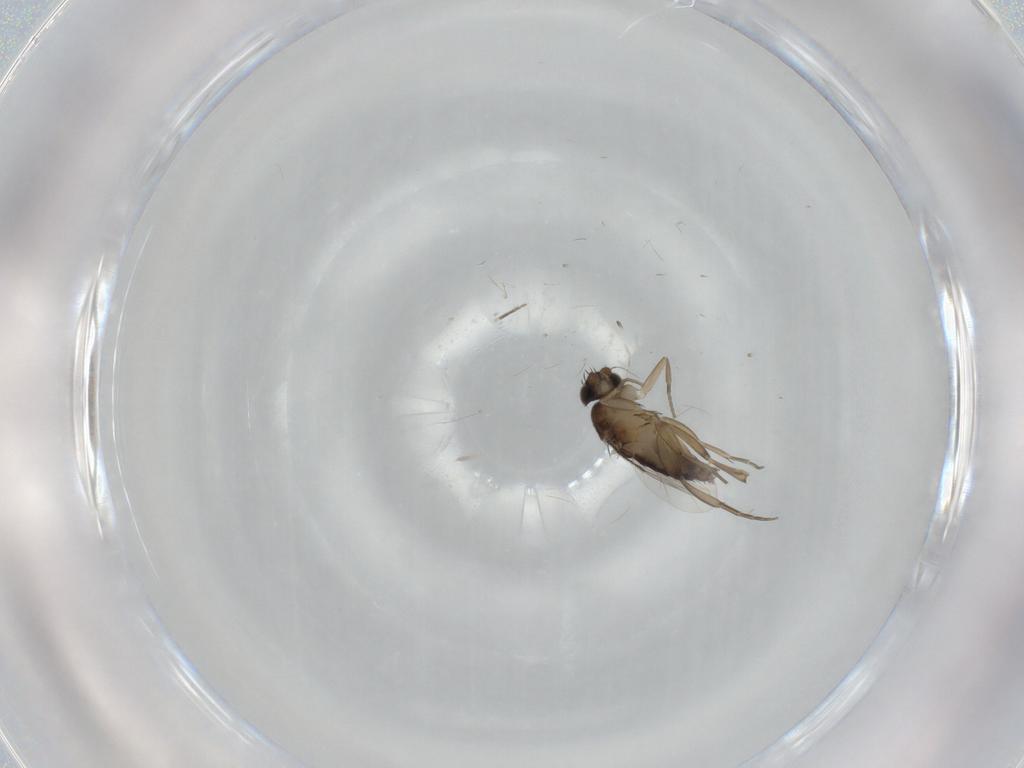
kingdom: Animalia
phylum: Arthropoda
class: Insecta
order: Diptera
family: Phoridae
